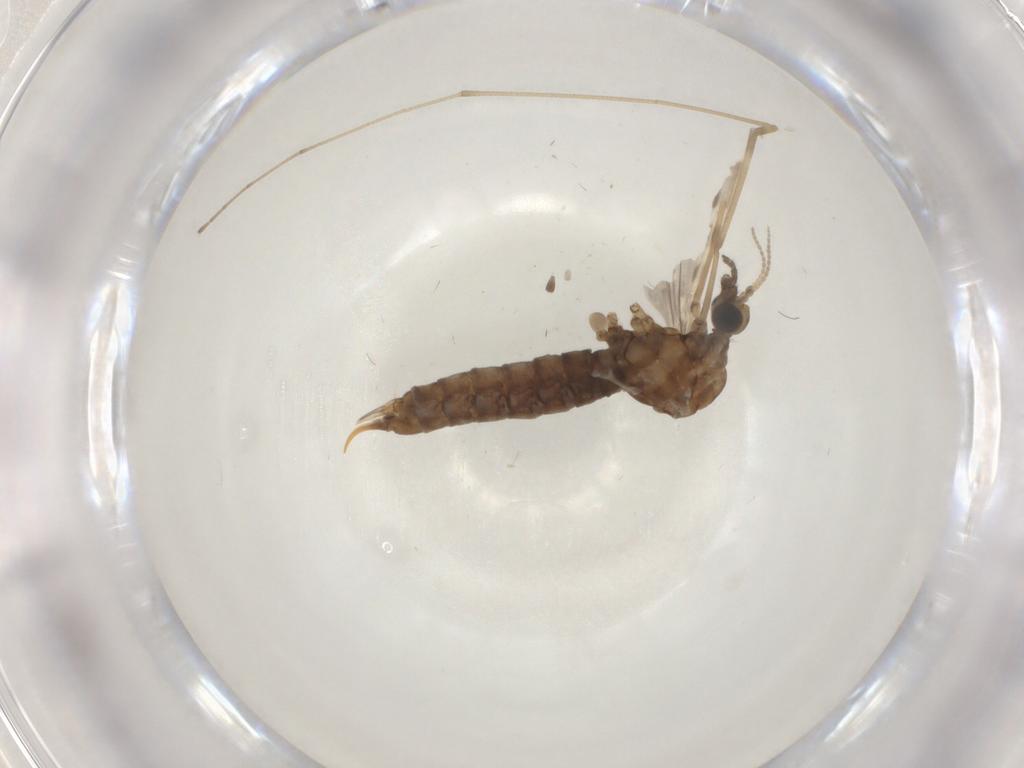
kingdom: Animalia
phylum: Arthropoda
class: Insecta
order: Diptera
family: Limoniidae
